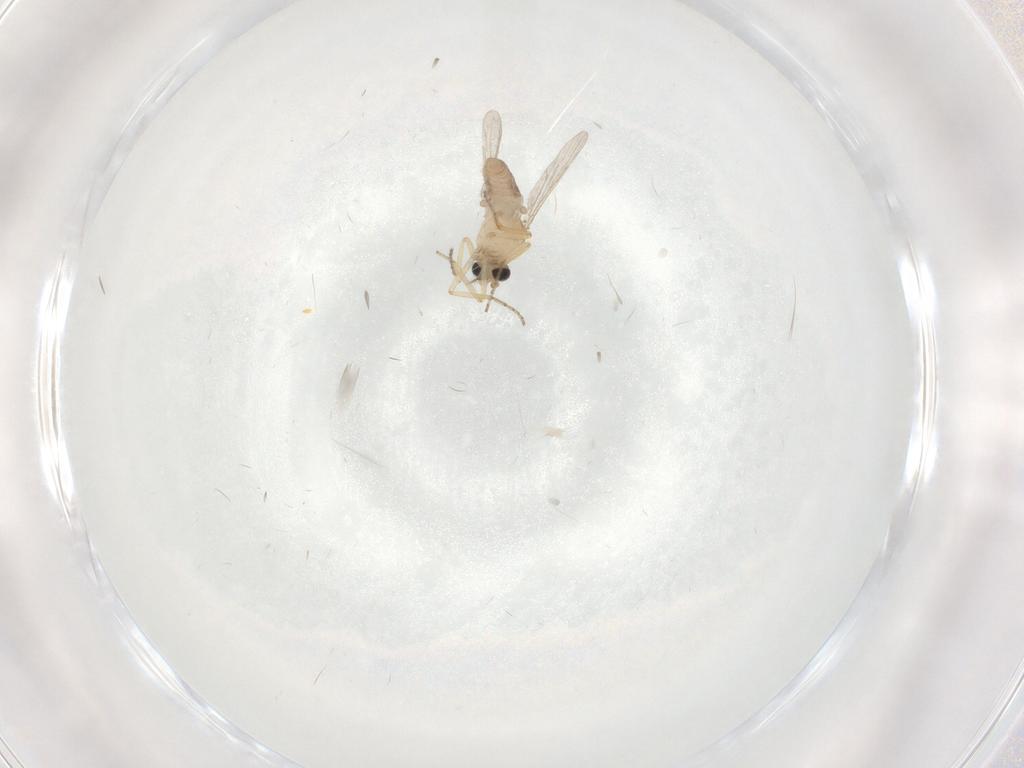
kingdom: Animalia
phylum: Arthropoda
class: Insecta
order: Diptera
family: Ceratopogonidae
